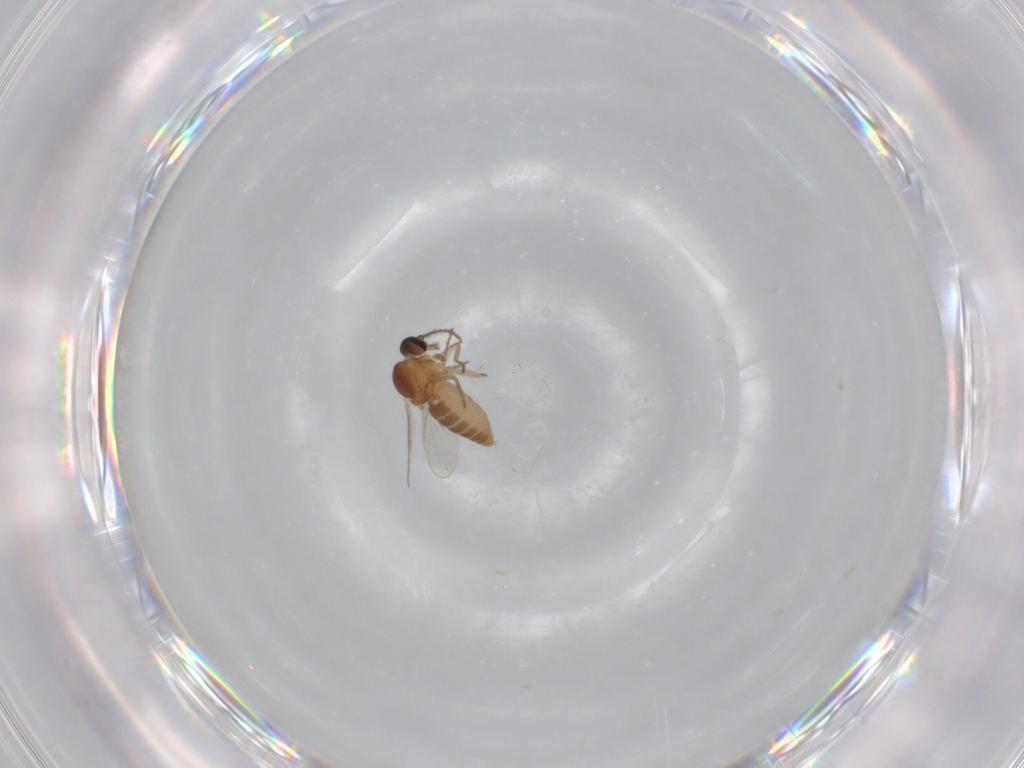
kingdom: Animalia
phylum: Arthropoda
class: Insecta
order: Diptera
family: Ceratopogonidae
